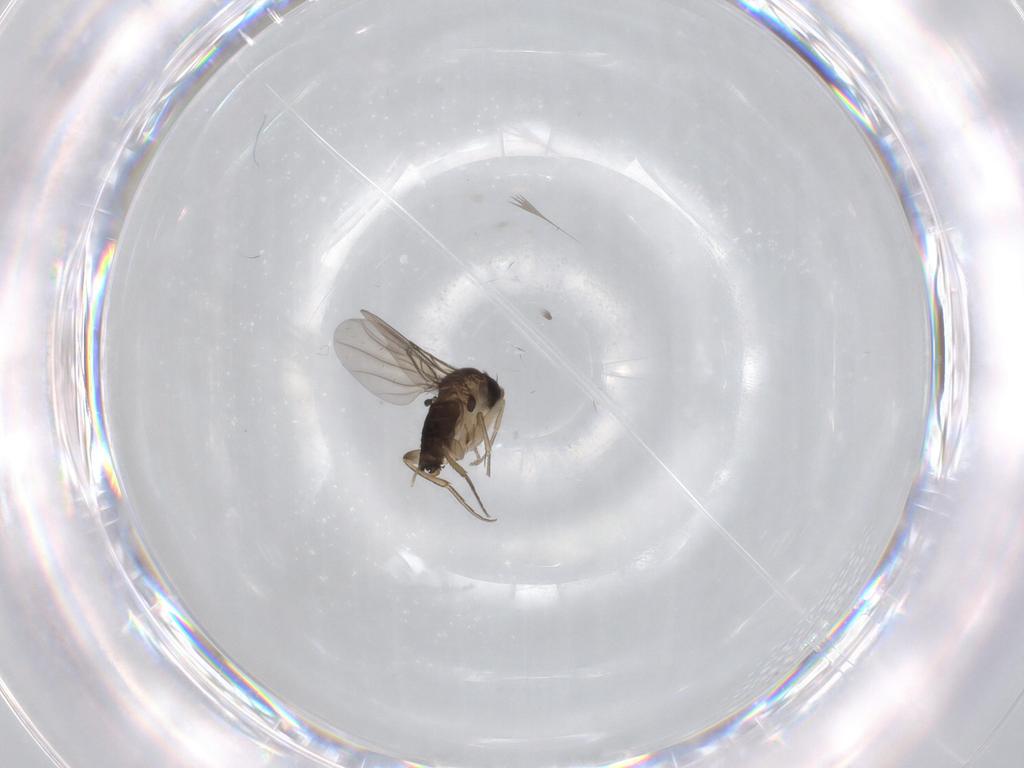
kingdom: Animalia
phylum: Arthropoda
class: Insecta
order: Diptera
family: Phoridae
